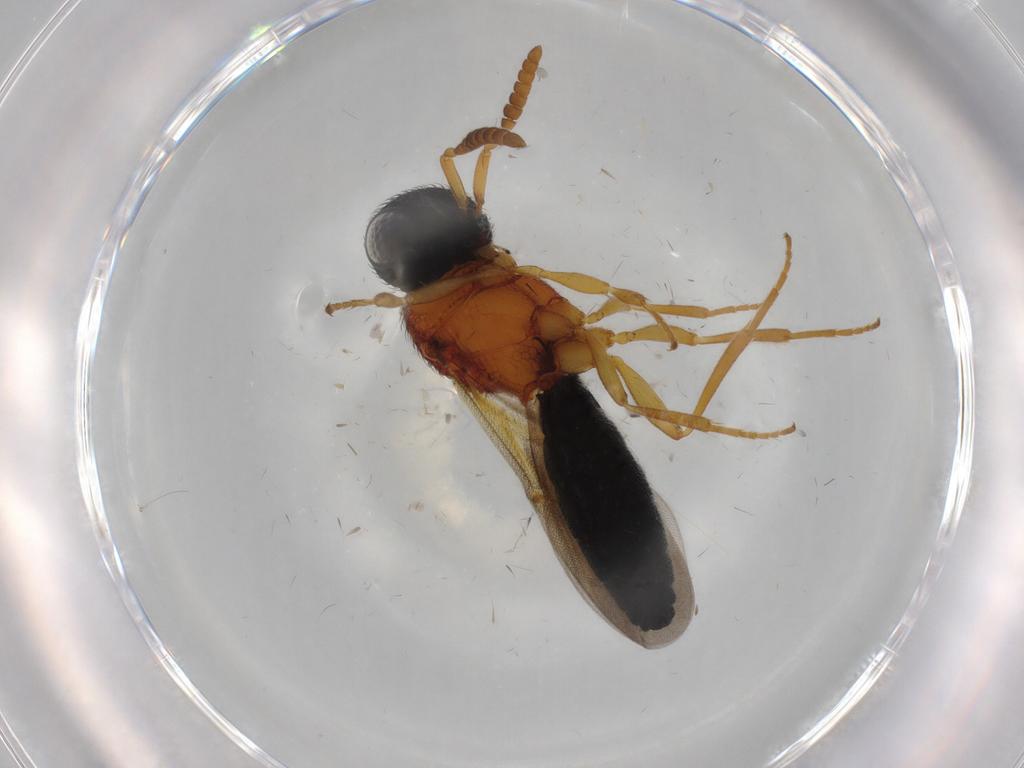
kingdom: Animalia
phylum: Arthropoda
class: Insecta
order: Hymenoptera
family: Scelionidae
